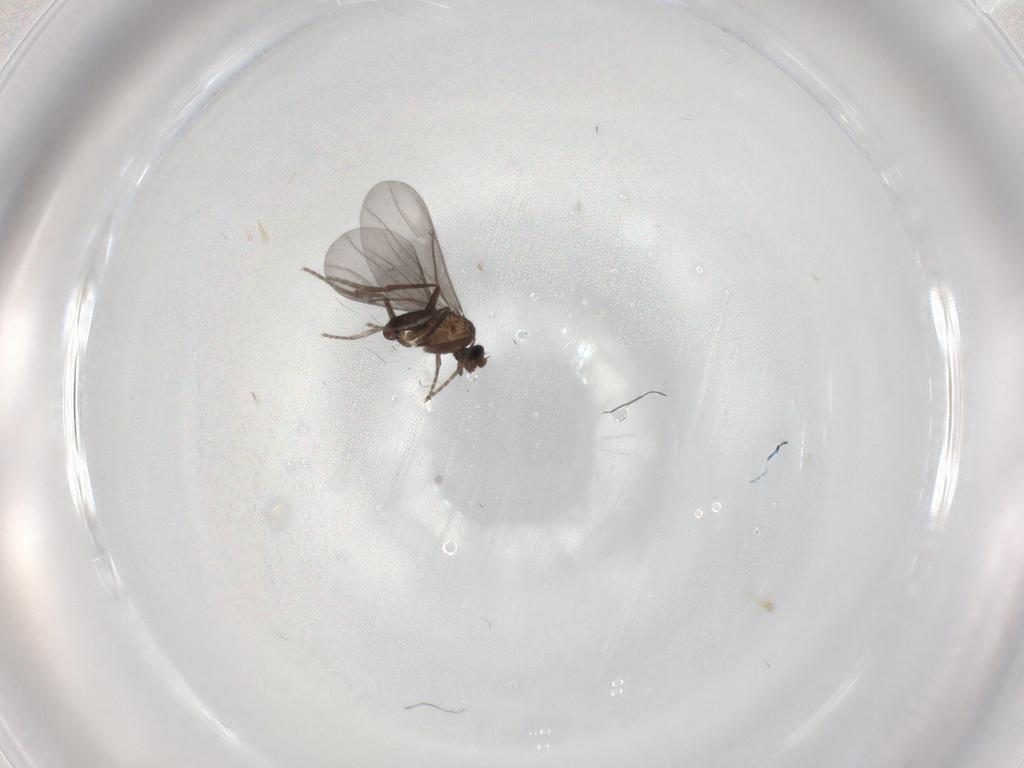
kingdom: Animalia
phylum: Arthropoda
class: Insecta
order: Diptera
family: Phoridae
